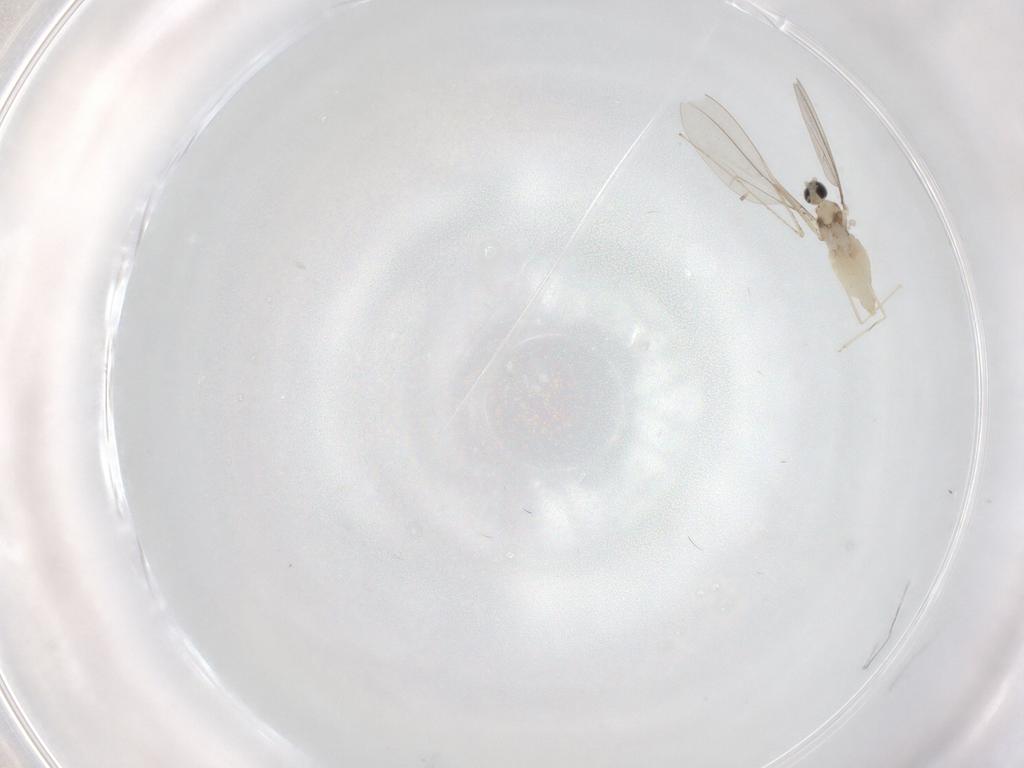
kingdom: Animalia
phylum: Arthropoda
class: Insecta
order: Diptera
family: Cecidomyiidae
